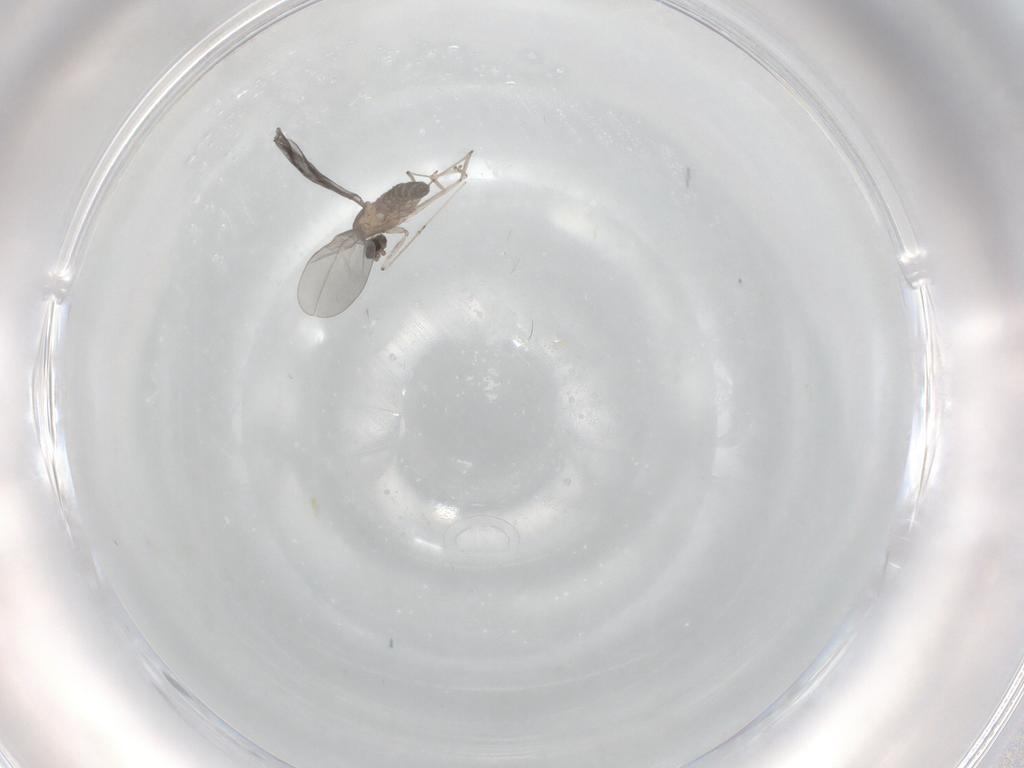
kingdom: Animalia
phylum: Arthropoda
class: Insecta
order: Diptera
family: Cecidomyiidae
